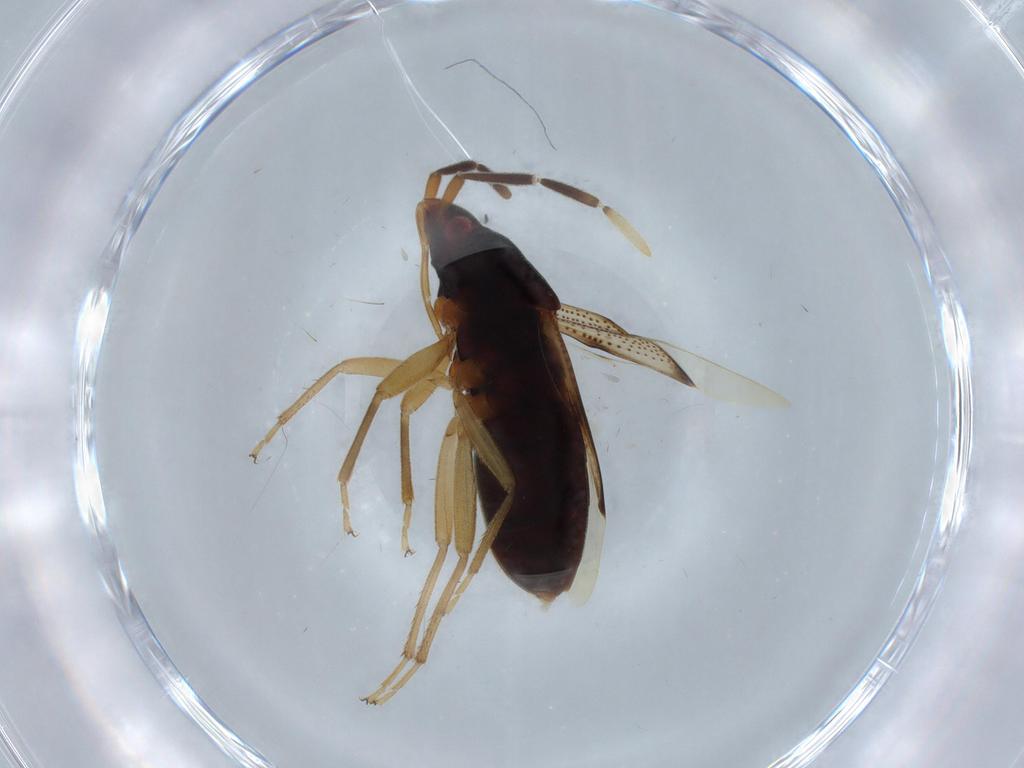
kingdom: Animalia
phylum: Arthropoda
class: Insecta
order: Hemiptera
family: Rhyparochromidae
